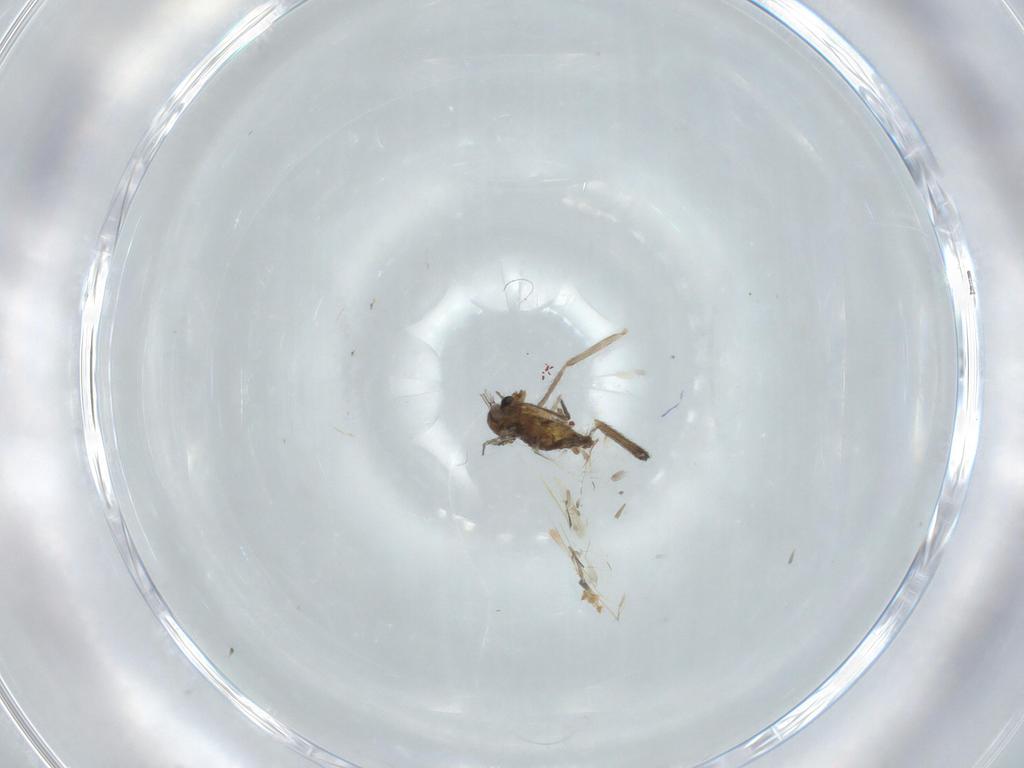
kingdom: Animalia
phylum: Arthropoda
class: Insecta
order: Diptera
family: Chironomidae
